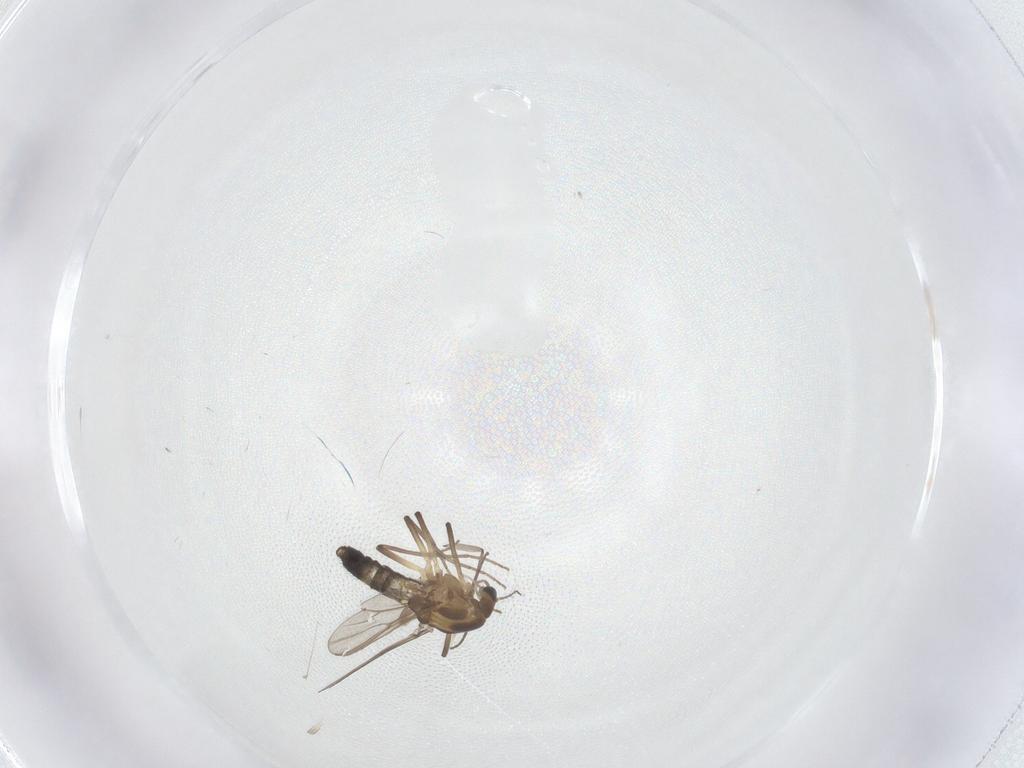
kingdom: Animalia
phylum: Arthropoda
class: Insecta
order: Diptera
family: Chironomidae
